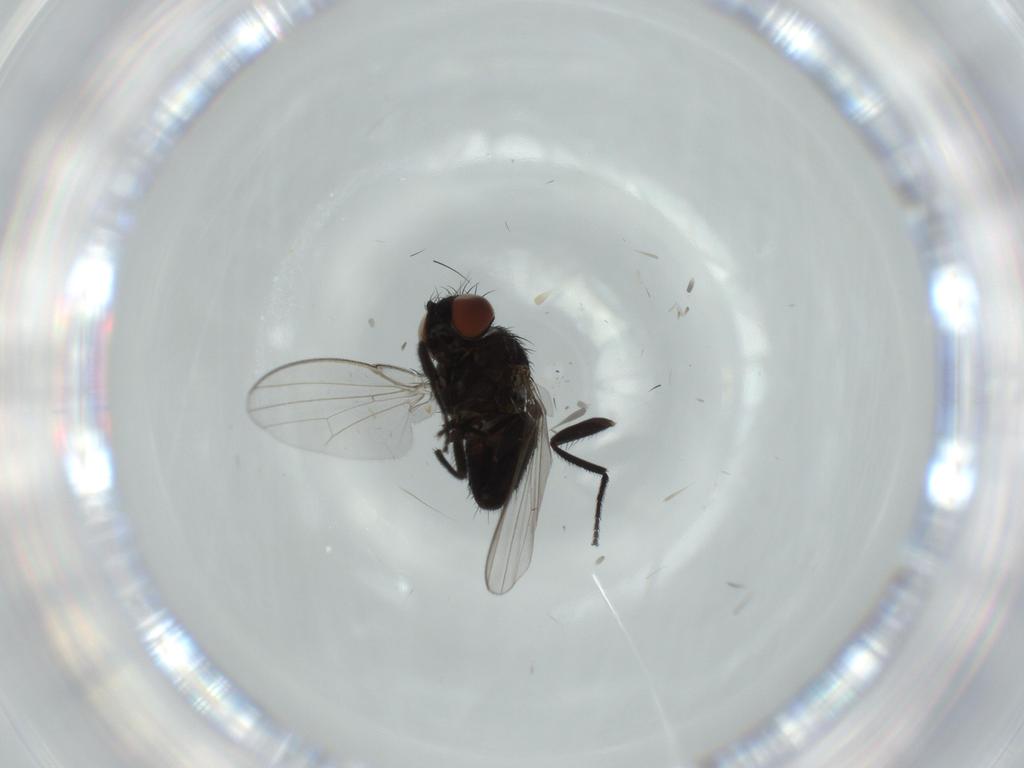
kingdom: Animalia
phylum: Arthropoda
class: Insecta
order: Diptera
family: Milichiidae
